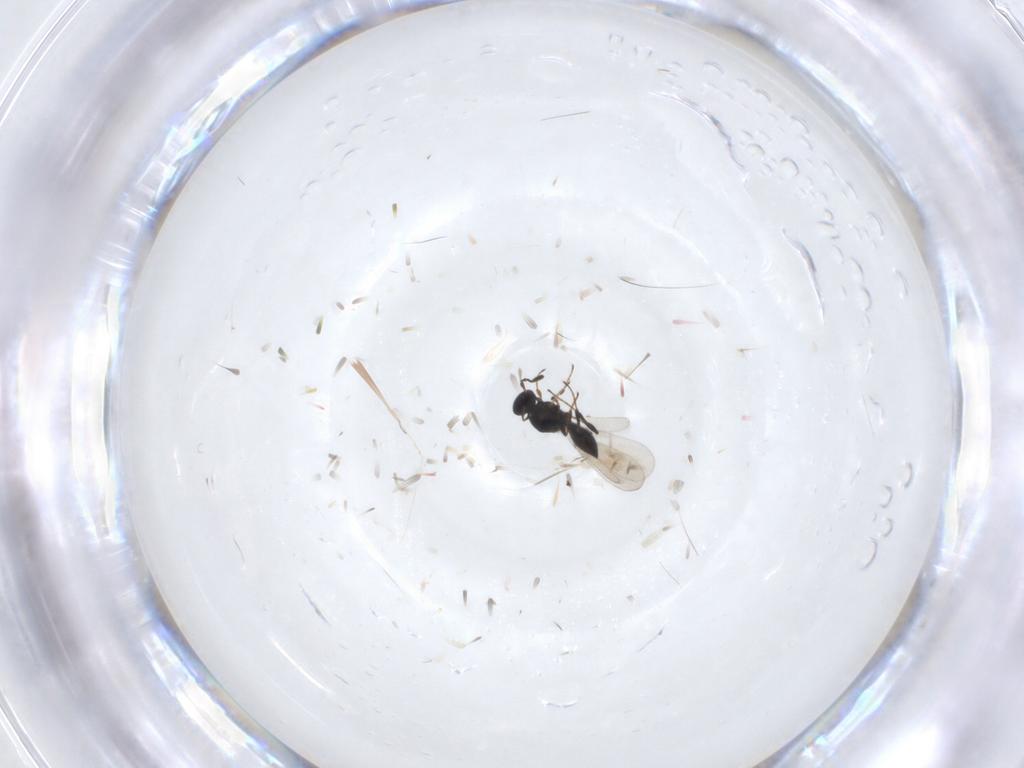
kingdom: Animalia
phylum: Arthropoda
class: Insecta
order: Hymenoptera
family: Platygastridae
